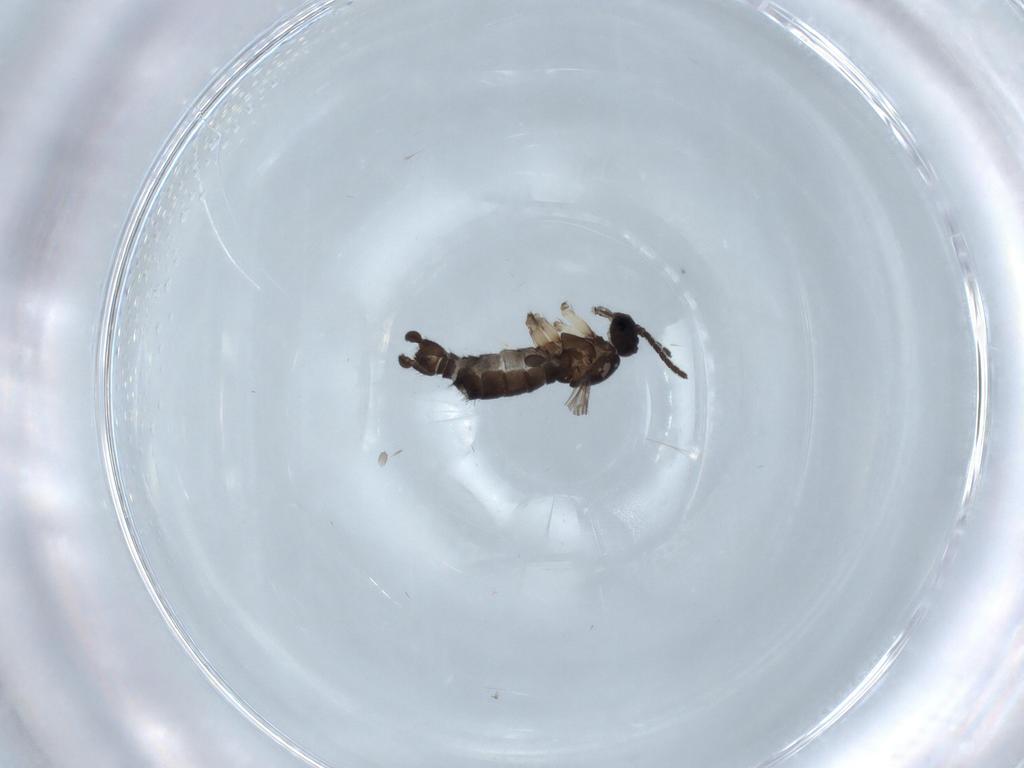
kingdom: Animalia
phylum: Arthropoda
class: Insecta
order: Diptera
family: Sciaridae
